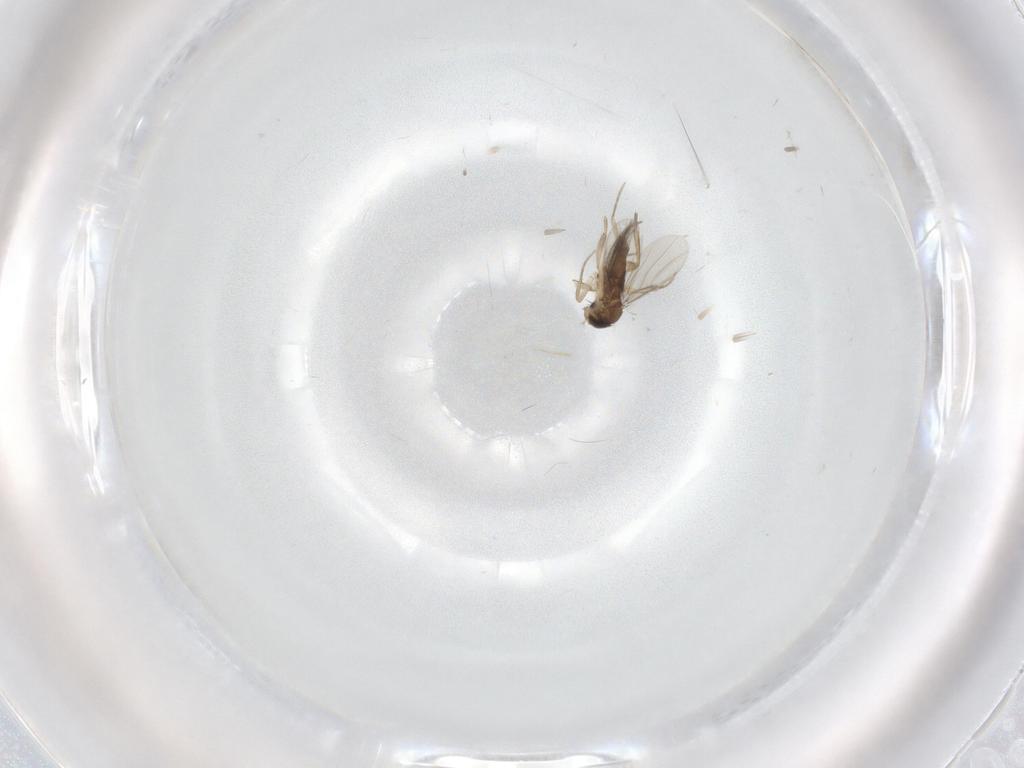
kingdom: Animalia
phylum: Arthropoda
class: Insecta
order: Diptera
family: Phoridae
